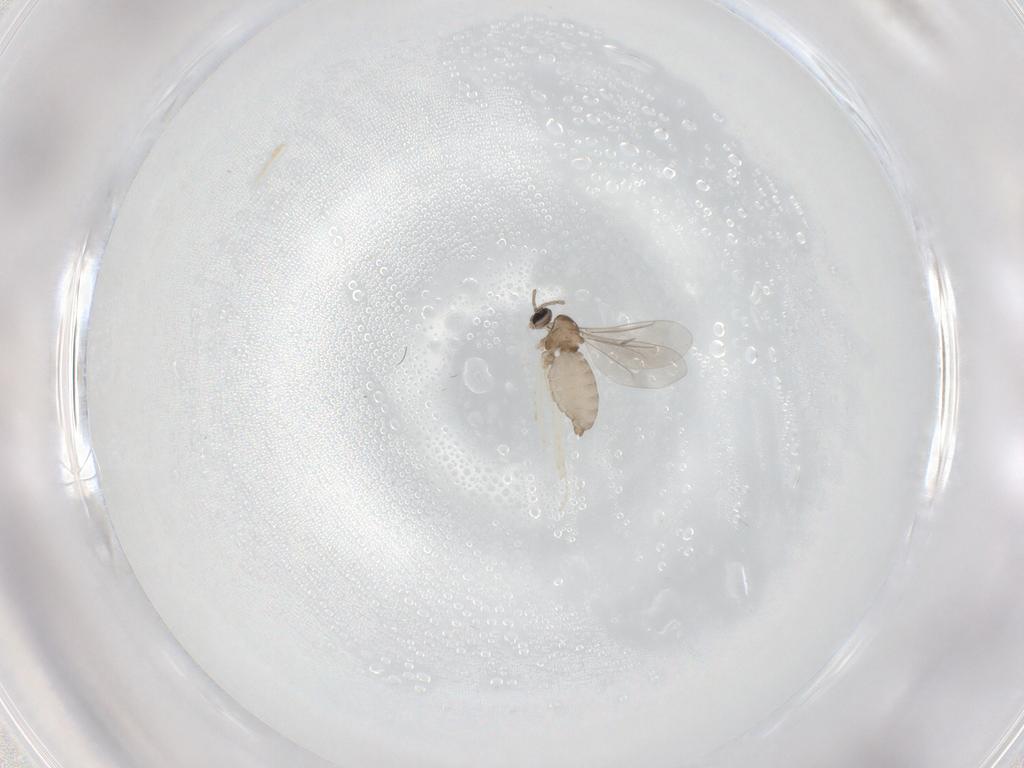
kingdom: Animalia
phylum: Arthropoda
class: Insecta
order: Diptera
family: Cecidomyiidae
